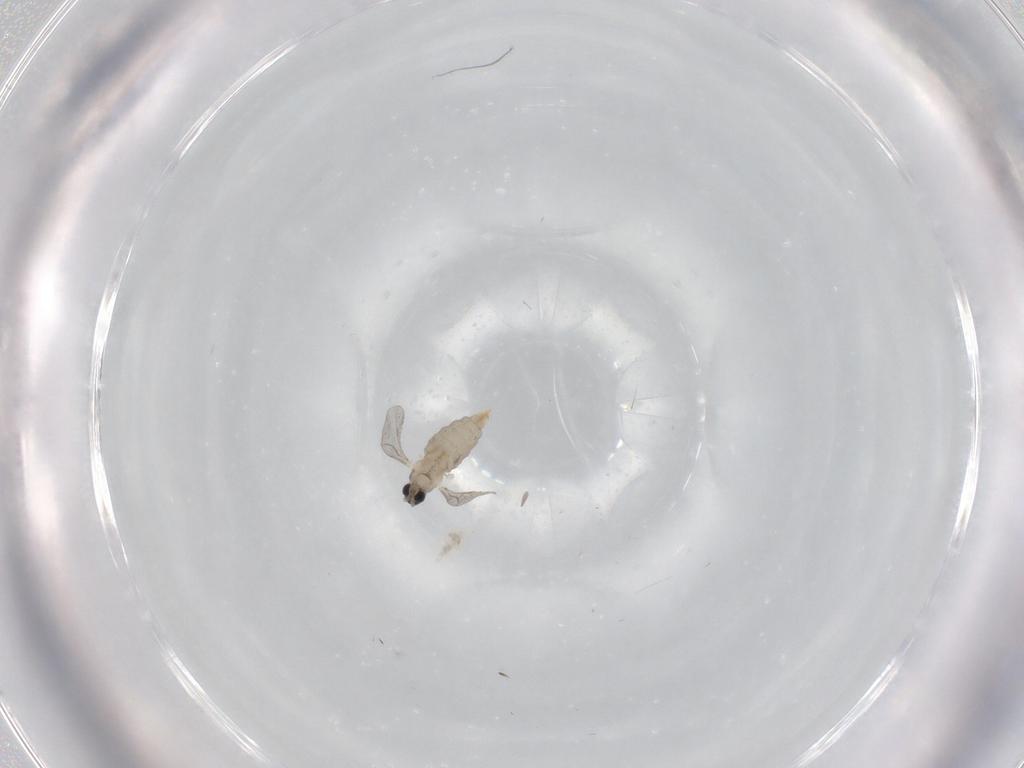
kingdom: Animalia
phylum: Arthropoda
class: Insecta
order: Diptera
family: Cecidomyiidae
